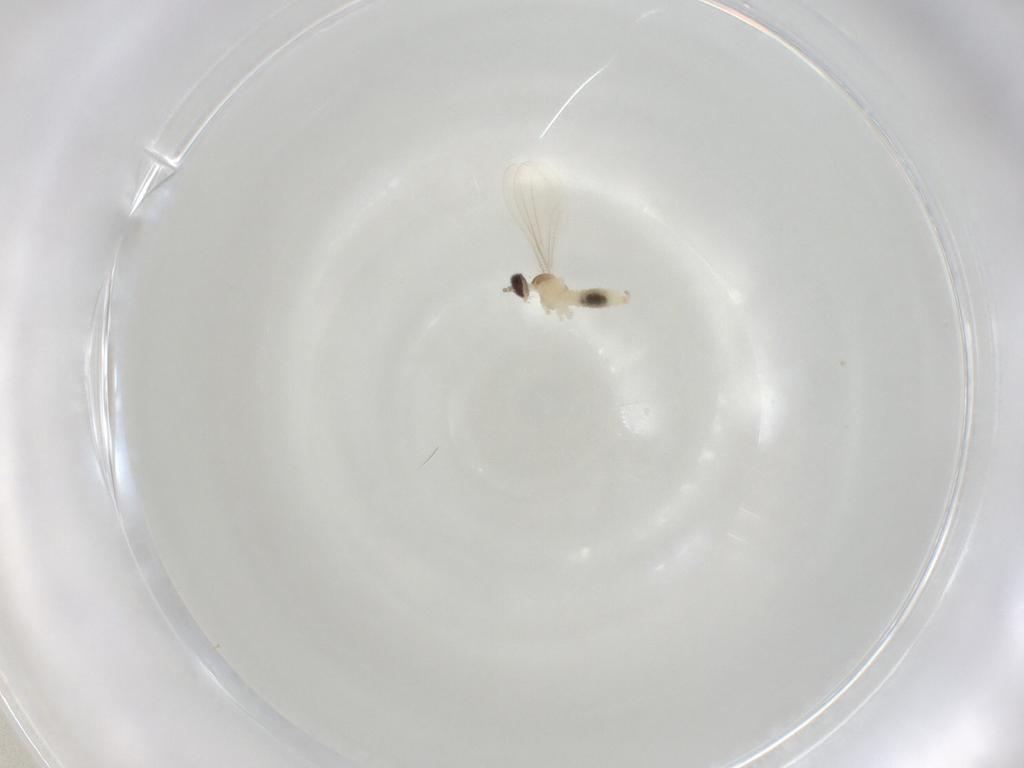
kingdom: Animalia
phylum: Arthropoda
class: Insecta
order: Diptera
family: Cecidomyiidae
